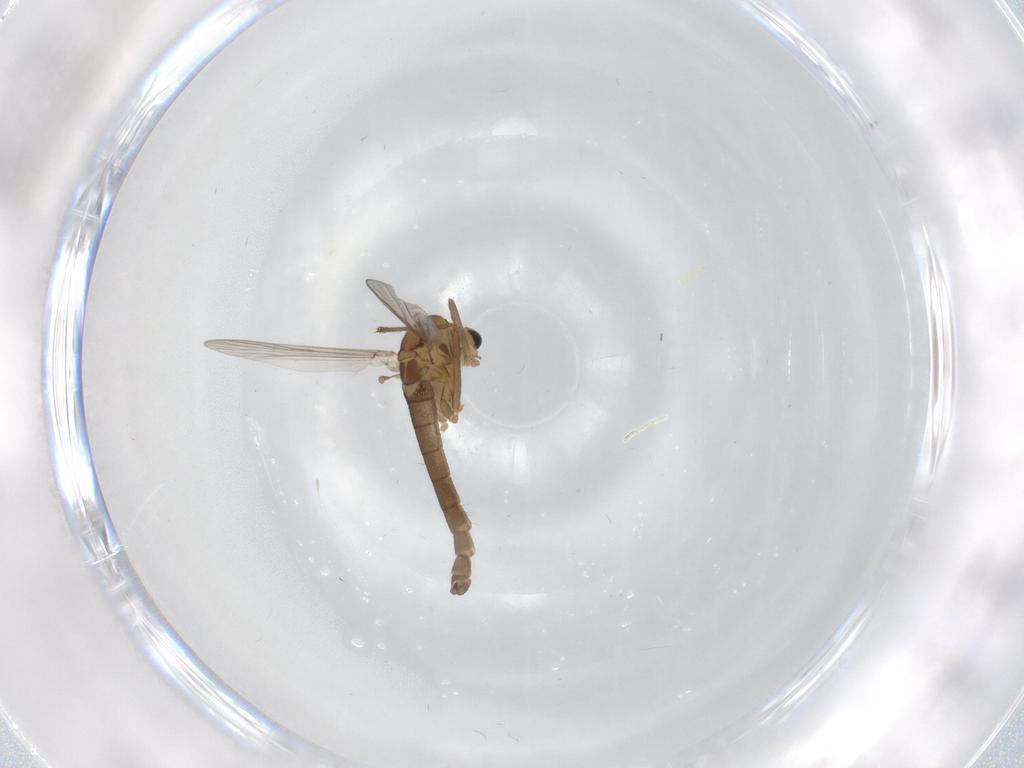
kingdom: Animalia
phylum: Arthropoda
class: Insecta
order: Diptera
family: Chironomidae
